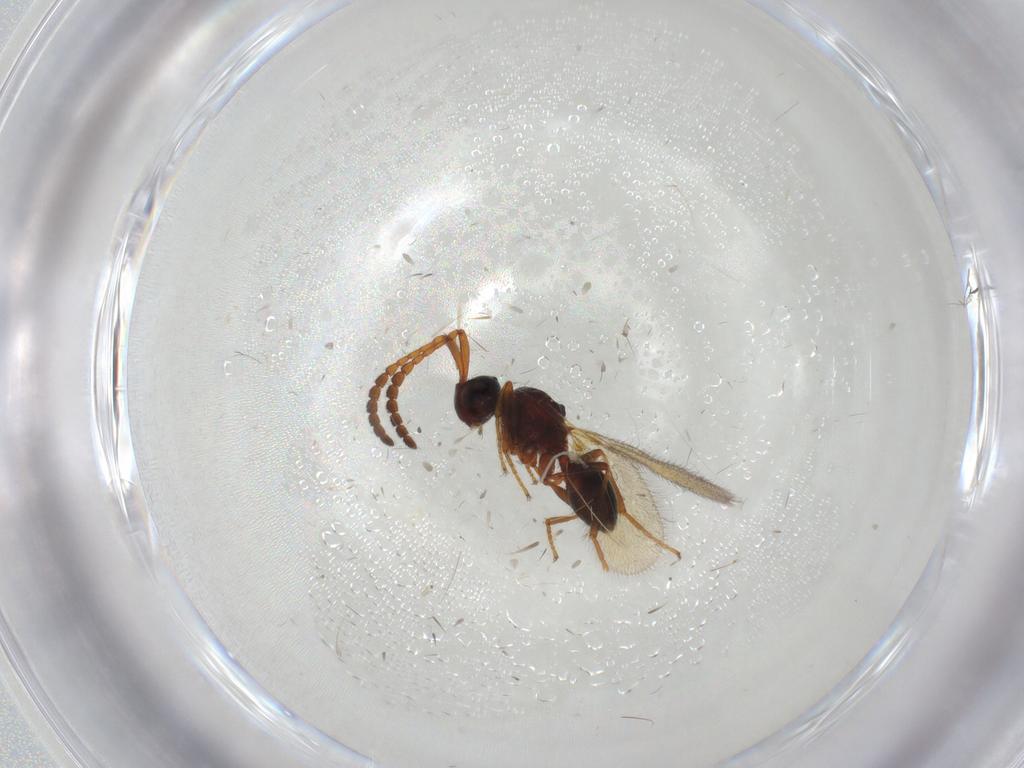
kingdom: Animalia
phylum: Arthropoda
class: Insecta
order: Hymenoptera
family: Diapriidae
